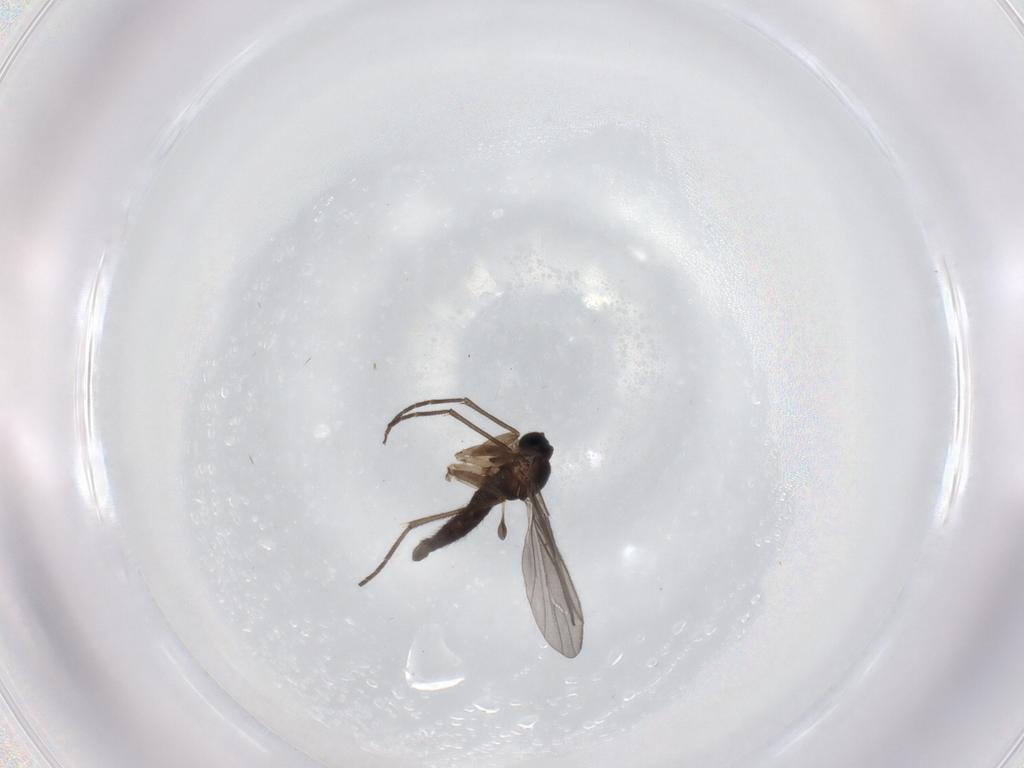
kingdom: Animalia
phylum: Arthropoda
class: Insecta
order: Diptera
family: Sciaridae
